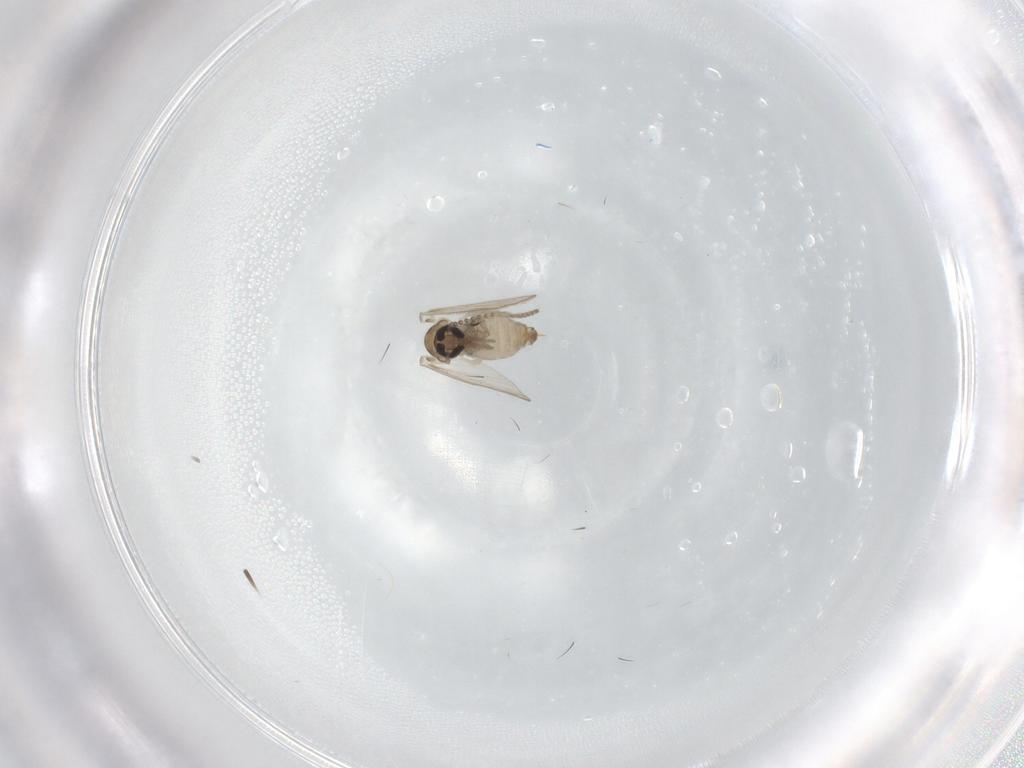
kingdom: Animalia
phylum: Arthropoda
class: Insecta
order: Diptera
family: Psychodidae
